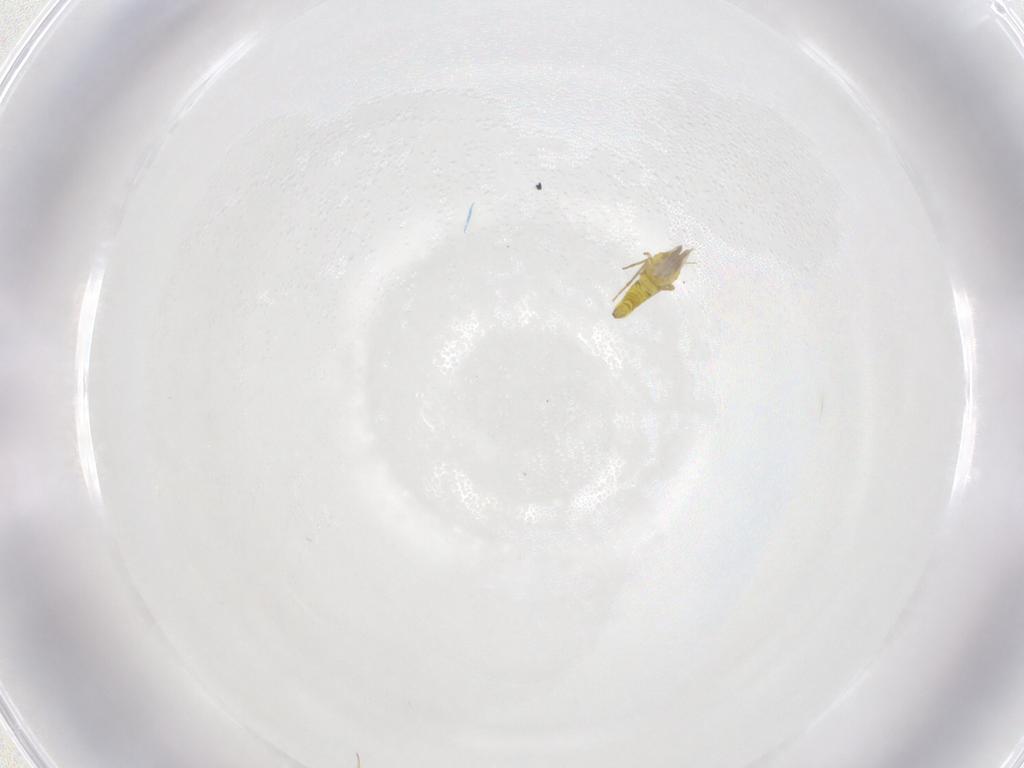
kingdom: Animalia
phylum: Arthropoda
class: Insecta
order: Hemiptera
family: Aleyrodidae
